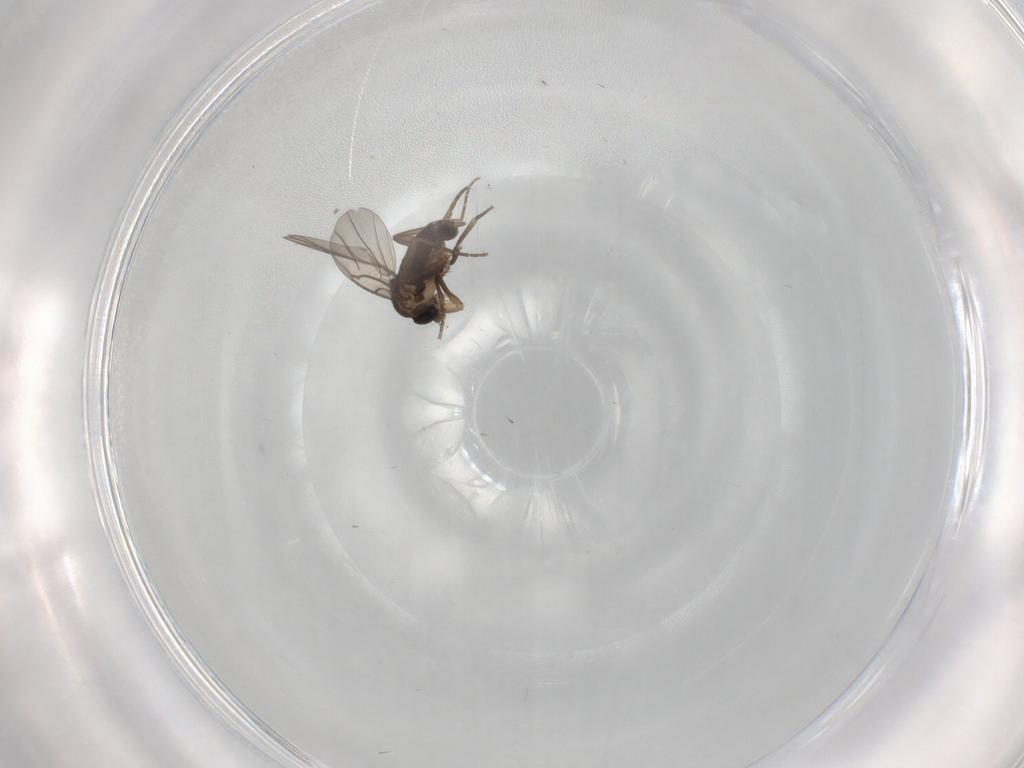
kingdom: Animalia
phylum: Arthropoda
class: Insecta
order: Diptera
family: Phoridae
